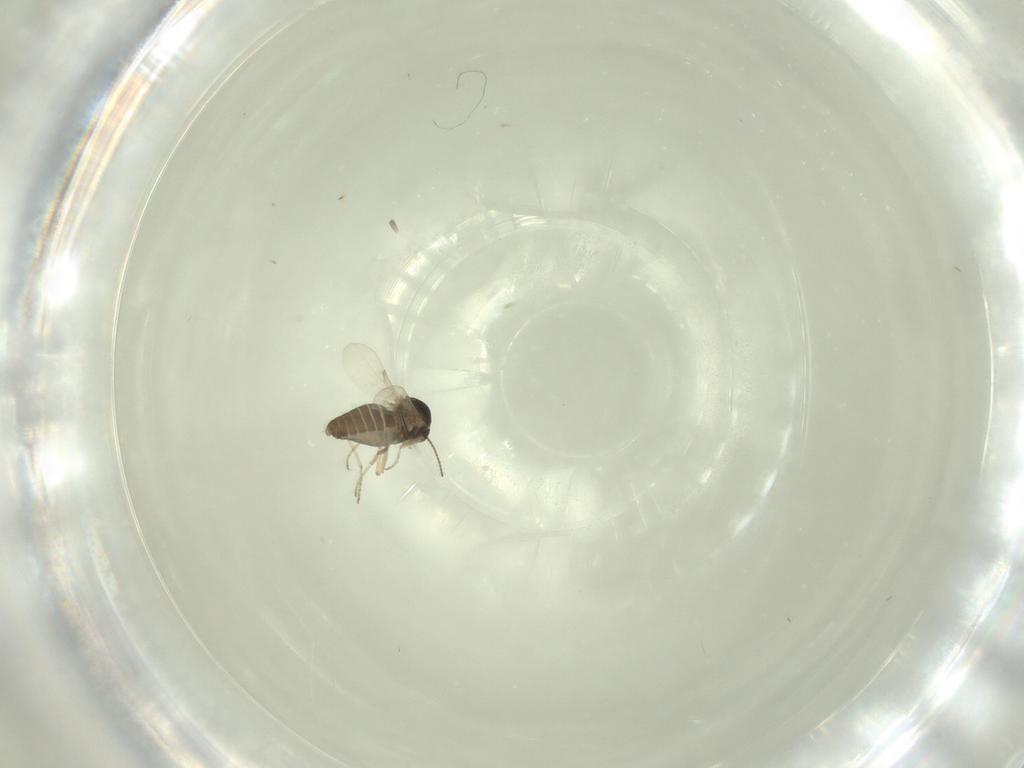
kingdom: Animalia
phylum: Arthropoda
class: Insecta
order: Diptera
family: Ceratopogonidae
